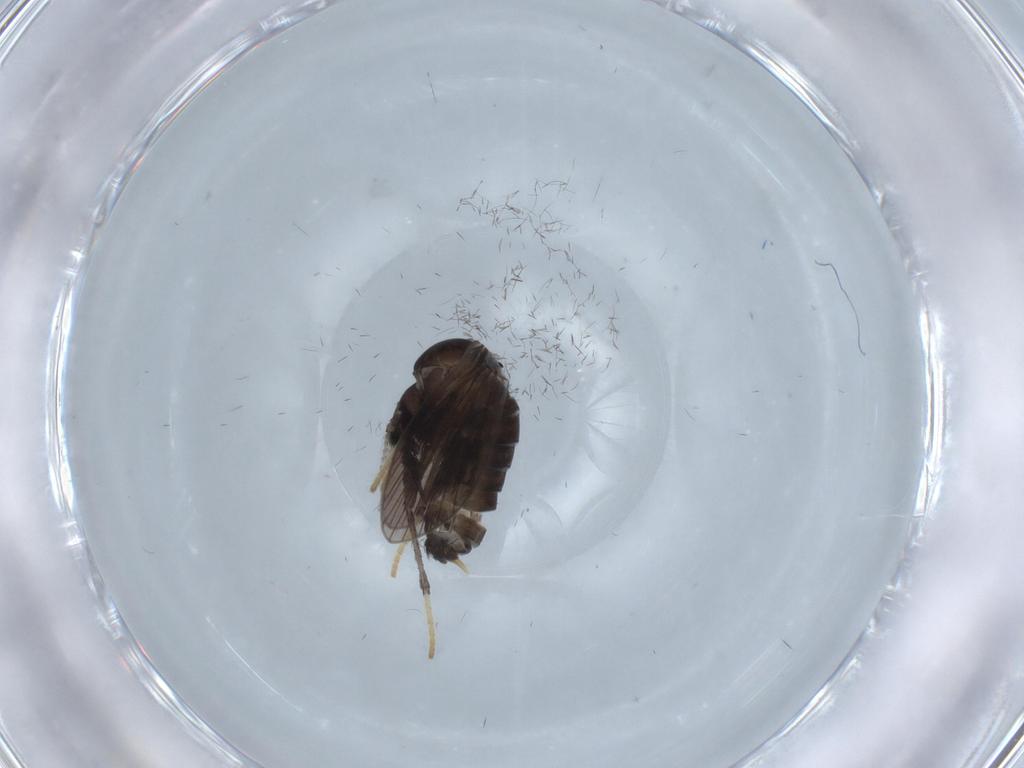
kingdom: Animalia
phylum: Arthropoda
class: Insecta
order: Diptera
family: Psychodidae
